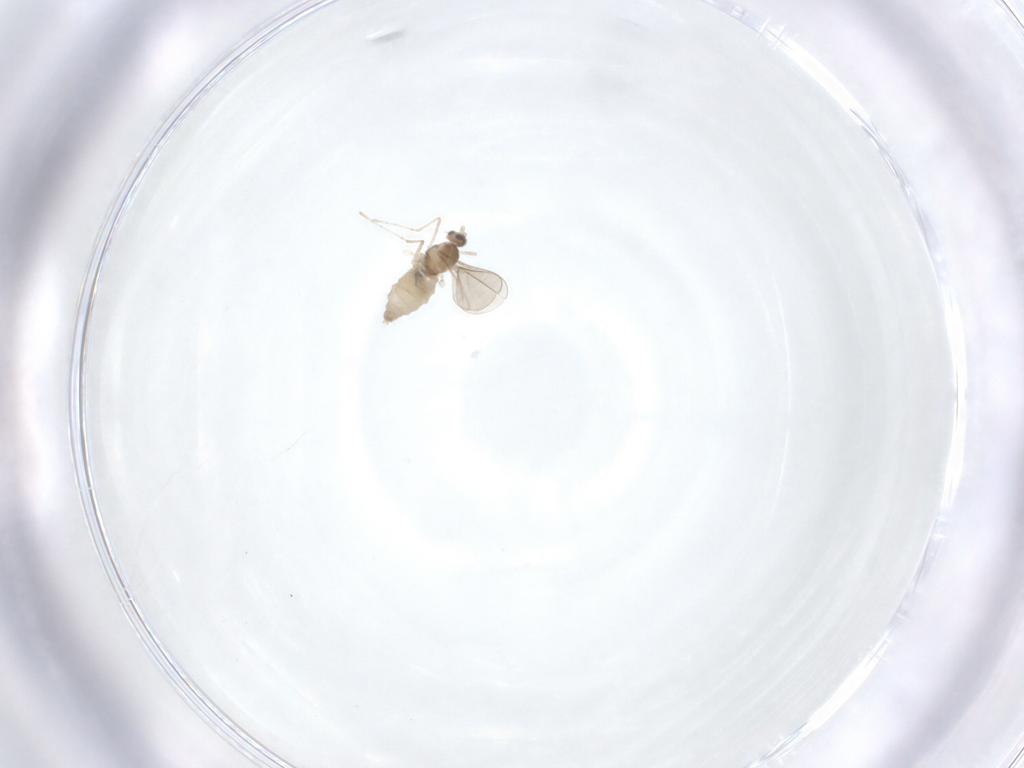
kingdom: Animalia
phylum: Arthropoda
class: Insecta
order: Diptera
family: Cecidomyiidae
